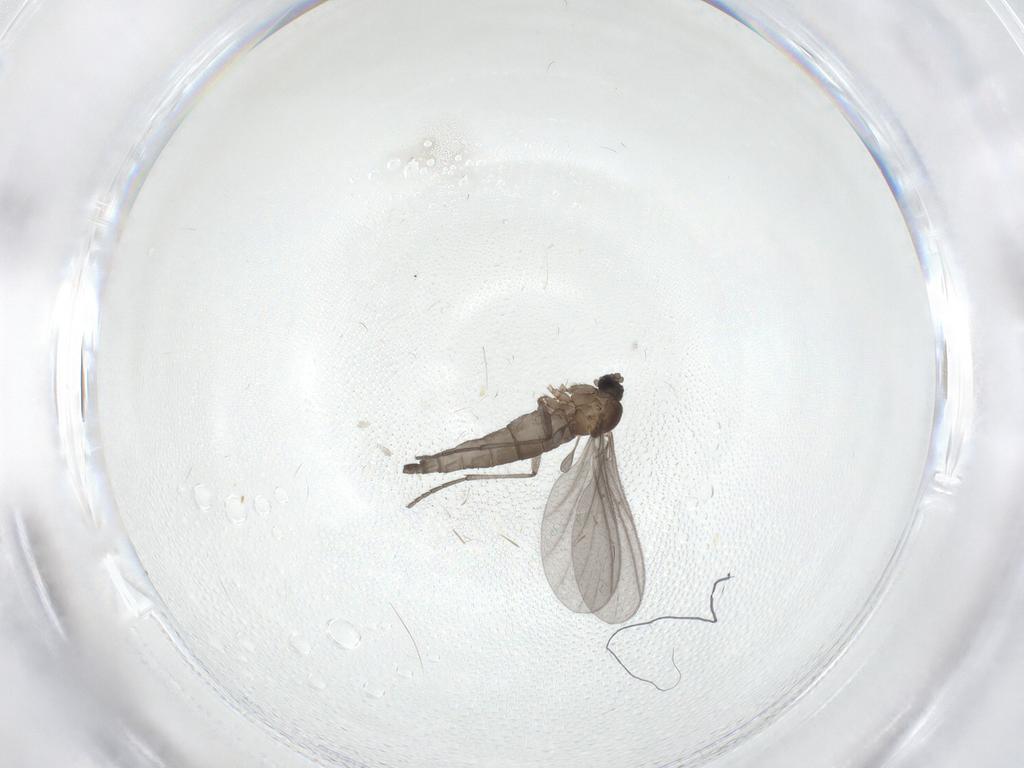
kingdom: Animalia
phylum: Arthropoda
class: Insecta
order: Diptera
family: Sciaridae
